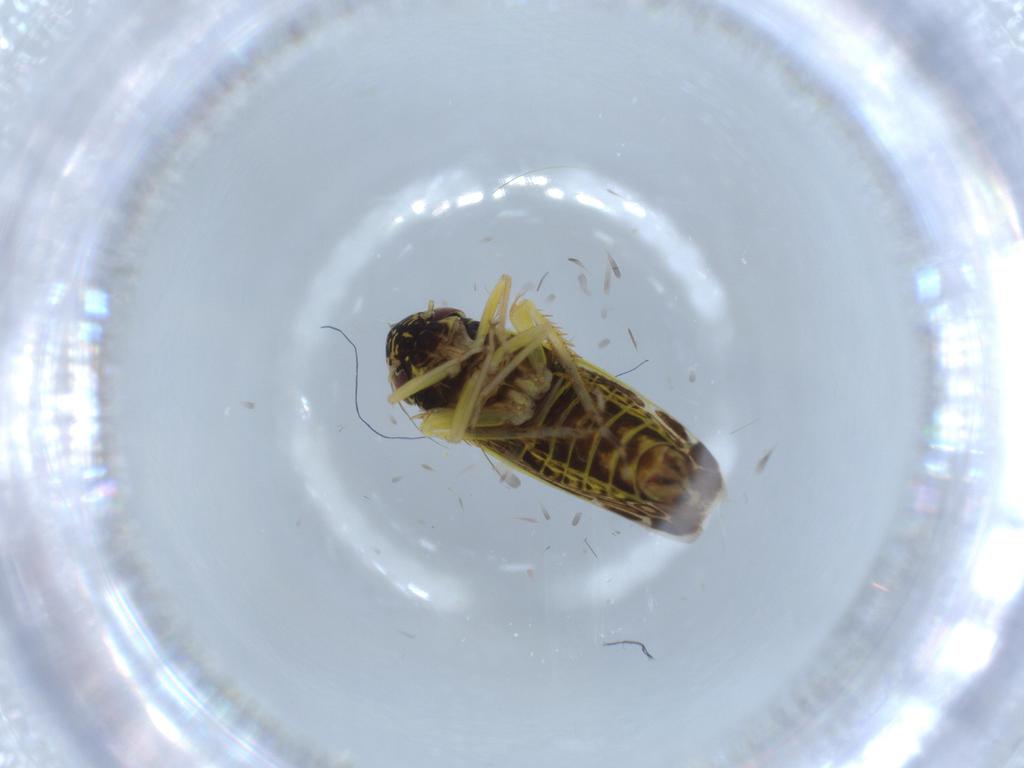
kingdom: Animalia
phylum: Arthropoda
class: Insecta
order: Hemiptera
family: Cicadellidae
